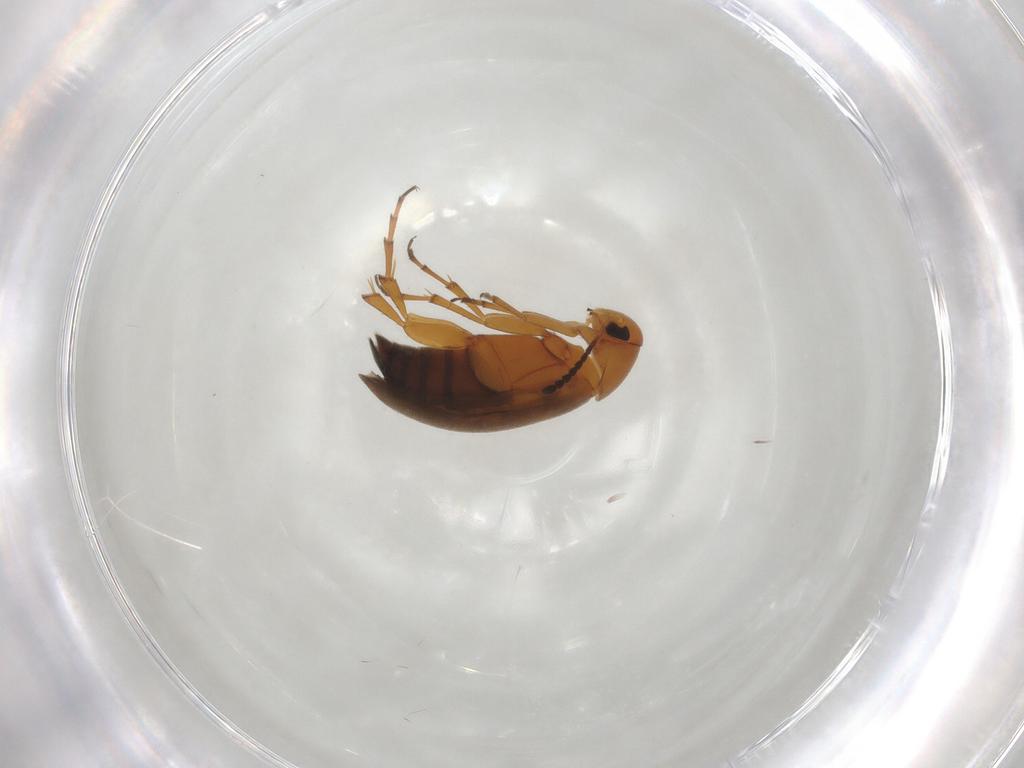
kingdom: Animalia
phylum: Arthropoda
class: Insecta
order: Coleoptera
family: Scraptiidae
